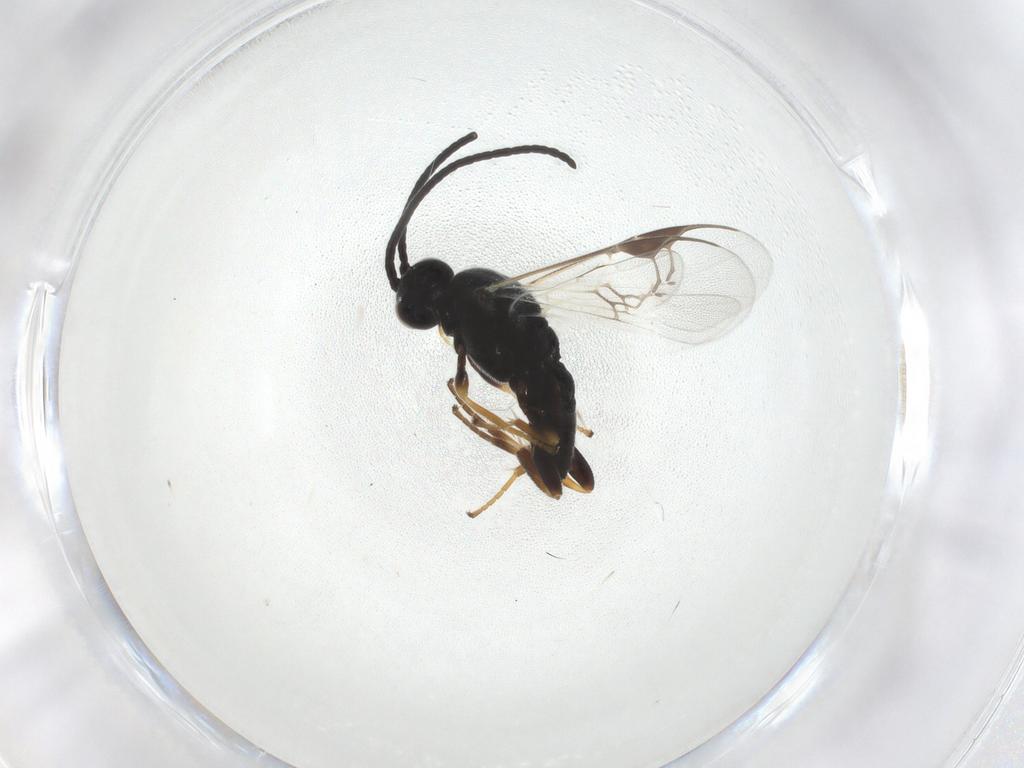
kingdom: Animalia
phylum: Arthropoda
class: Insecta
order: Hymenoptera
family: Braconidae
